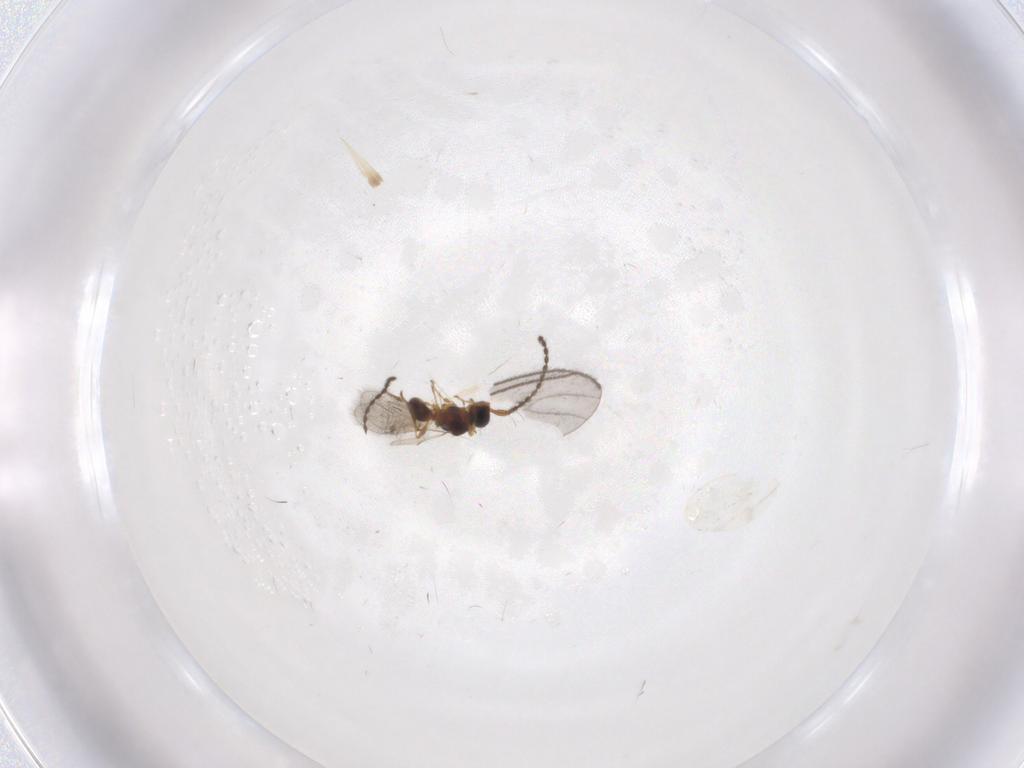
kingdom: Animalia
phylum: Arthropoda
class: Insecta
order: Hymenoptera
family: Diapriidae
